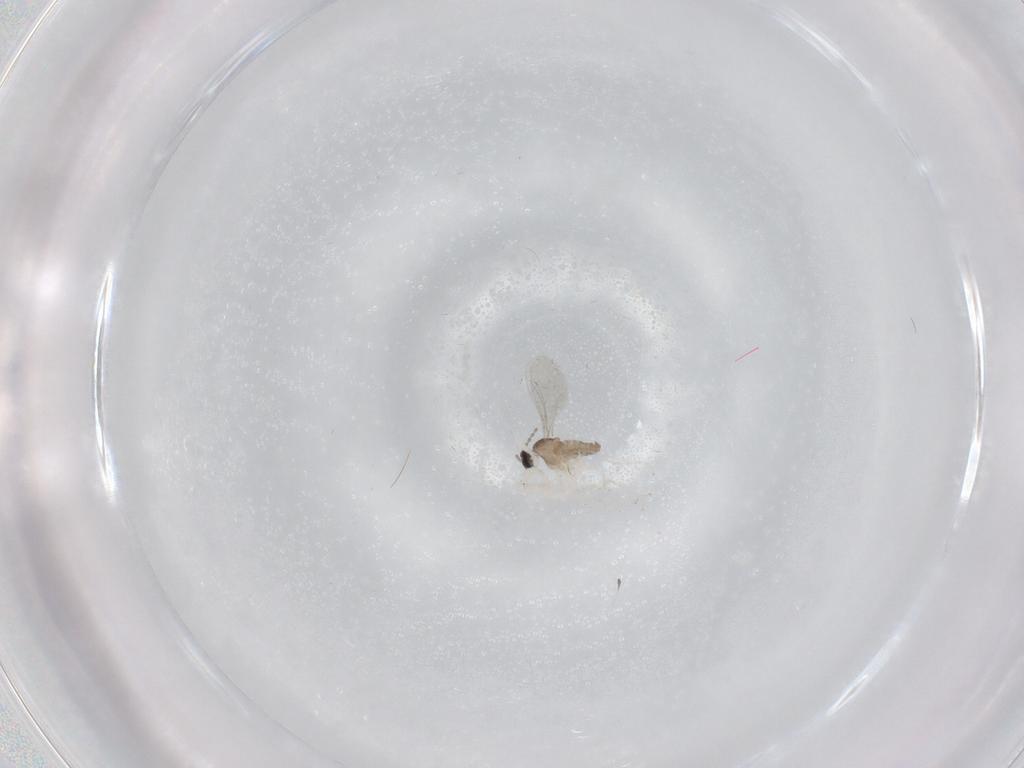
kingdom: Animalia
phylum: Arthropoda
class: Insecta
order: Diptera
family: Cecidomyiidae
